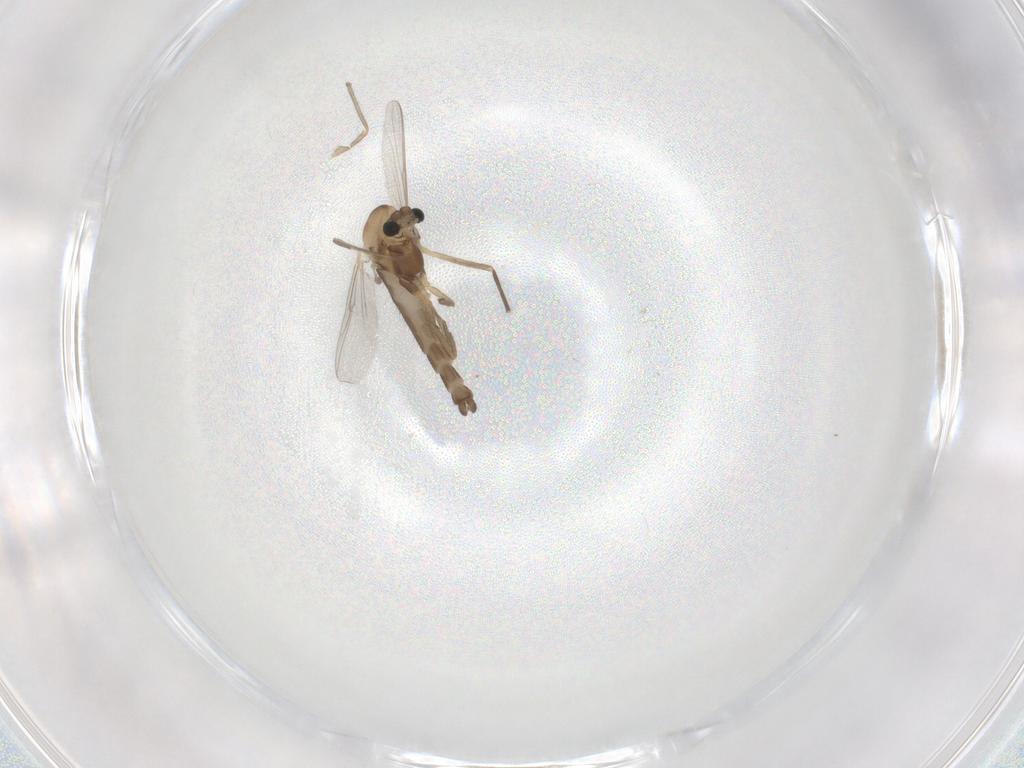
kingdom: Animalia
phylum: Arthropoda
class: Insecta
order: Diptera
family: Chironomidae
